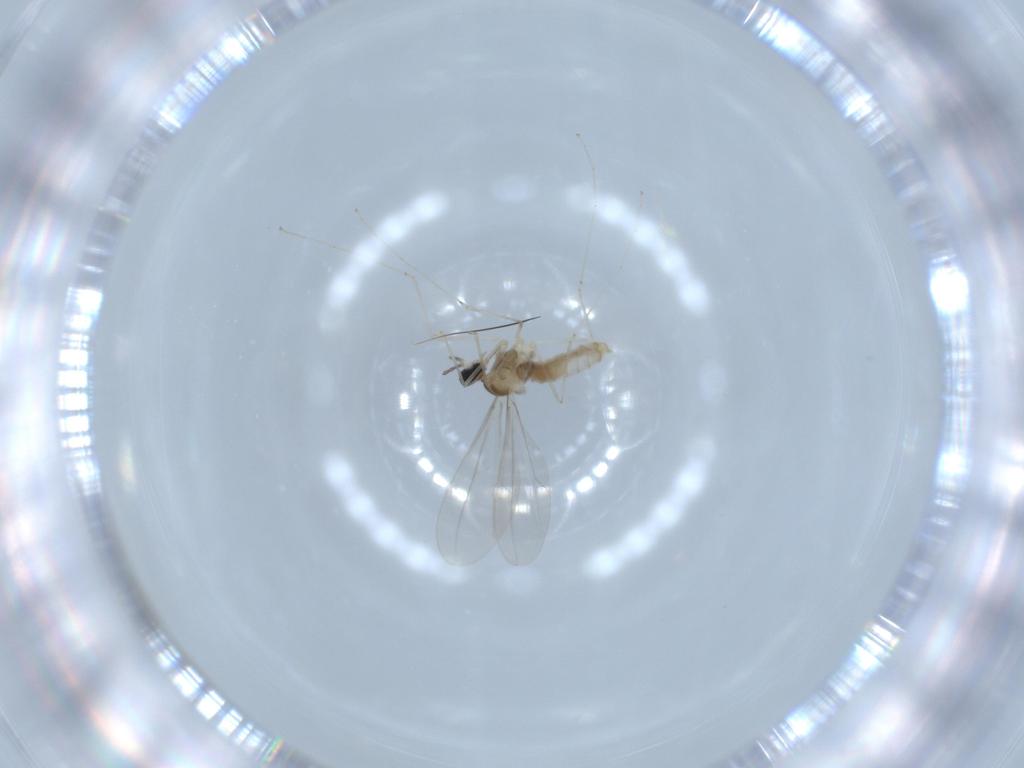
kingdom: Animalia
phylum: Arthropoda
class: Insecta
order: Diptera
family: Cecidomyiidae
